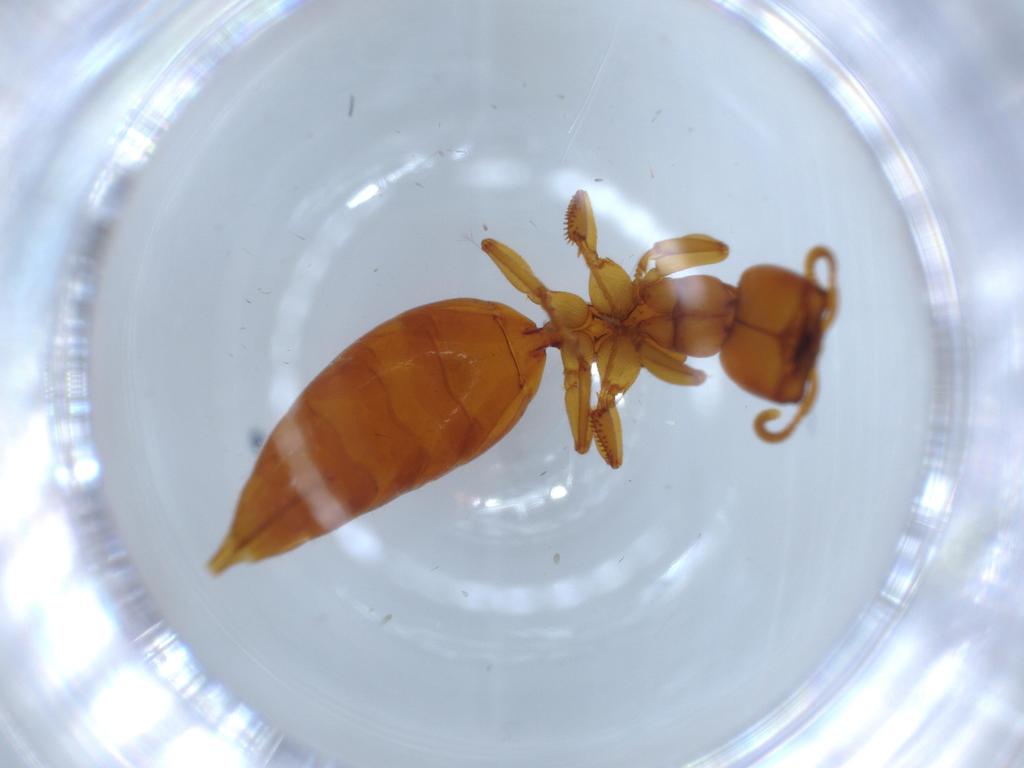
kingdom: Animalia
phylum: Arthropoda
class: Insecta
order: Hymenoptera
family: Bethylidae
